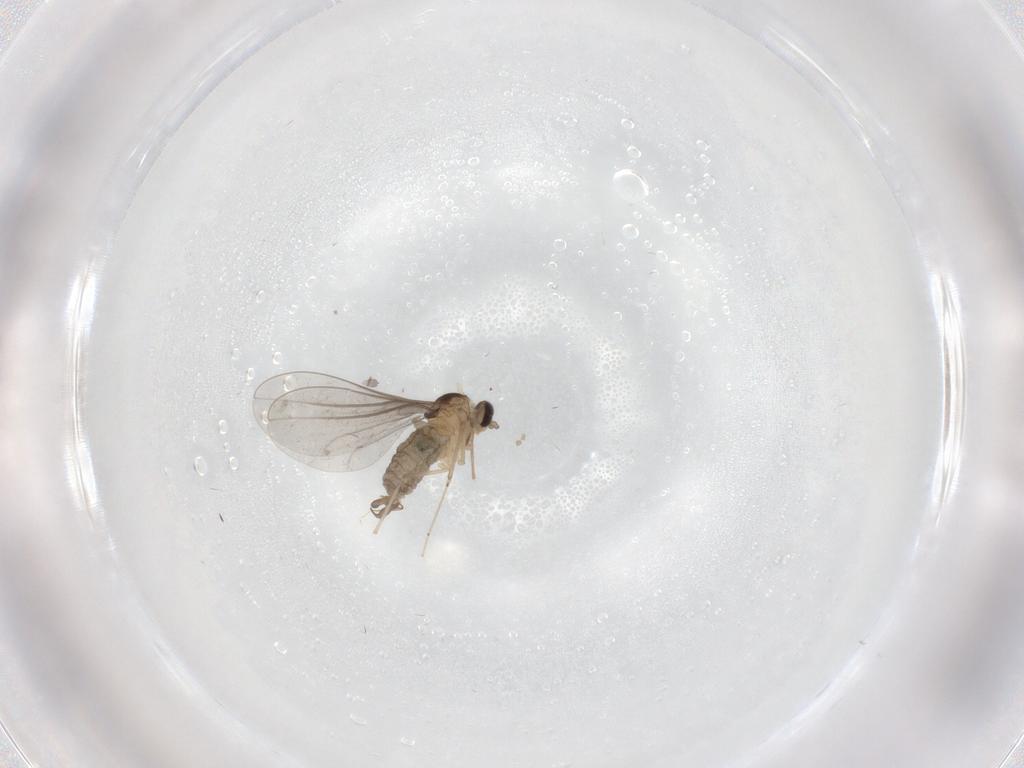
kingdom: Animalia
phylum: Arthropoda
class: Insecta
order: Diptera
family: Cecidomyiidae
